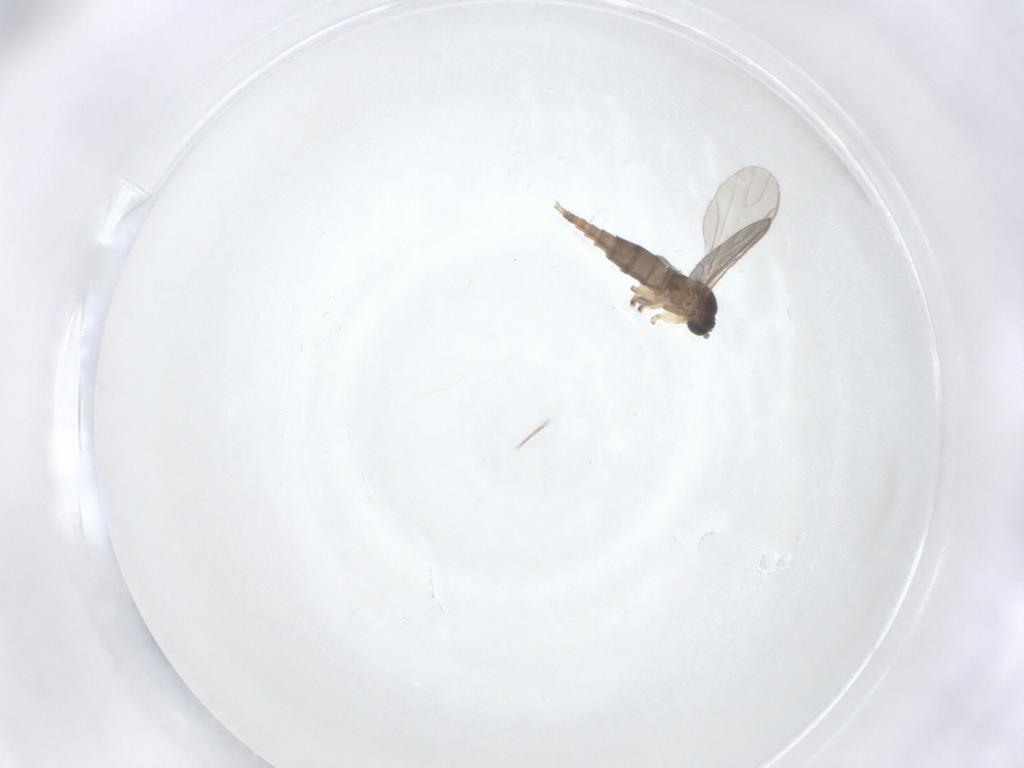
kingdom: Animalia
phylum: Arthropoda
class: Insecta
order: Diptera
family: Sciaridae
